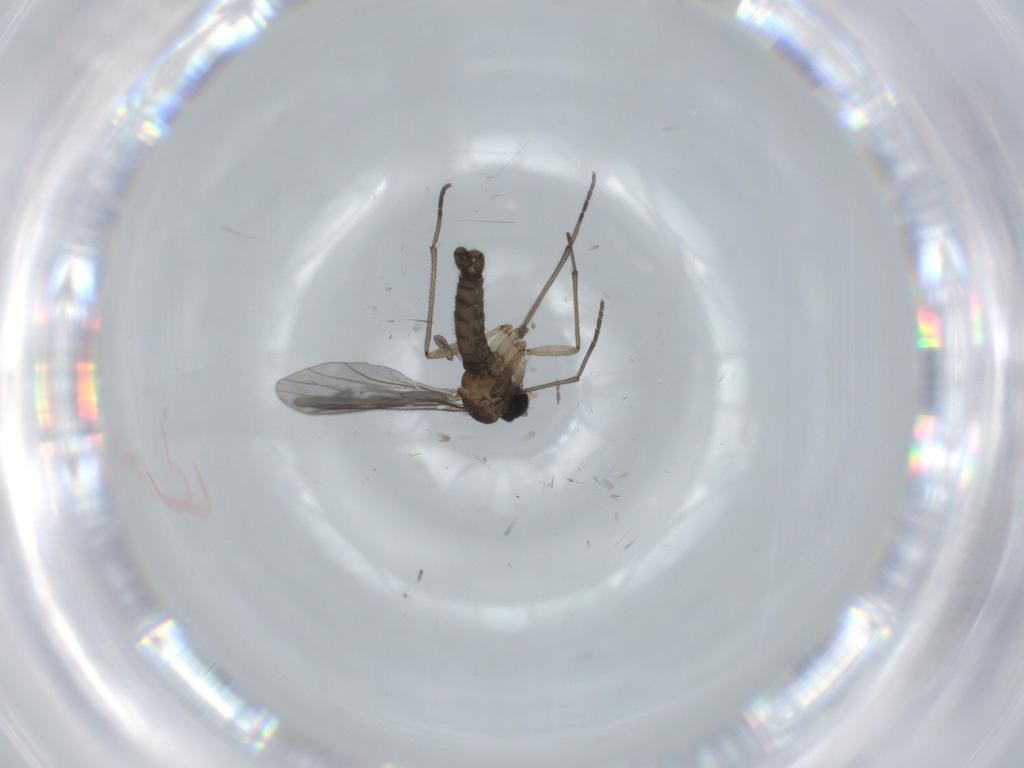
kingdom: Animalia
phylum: Arthropoda
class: Insecta
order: Diptera
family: Sciaridae
